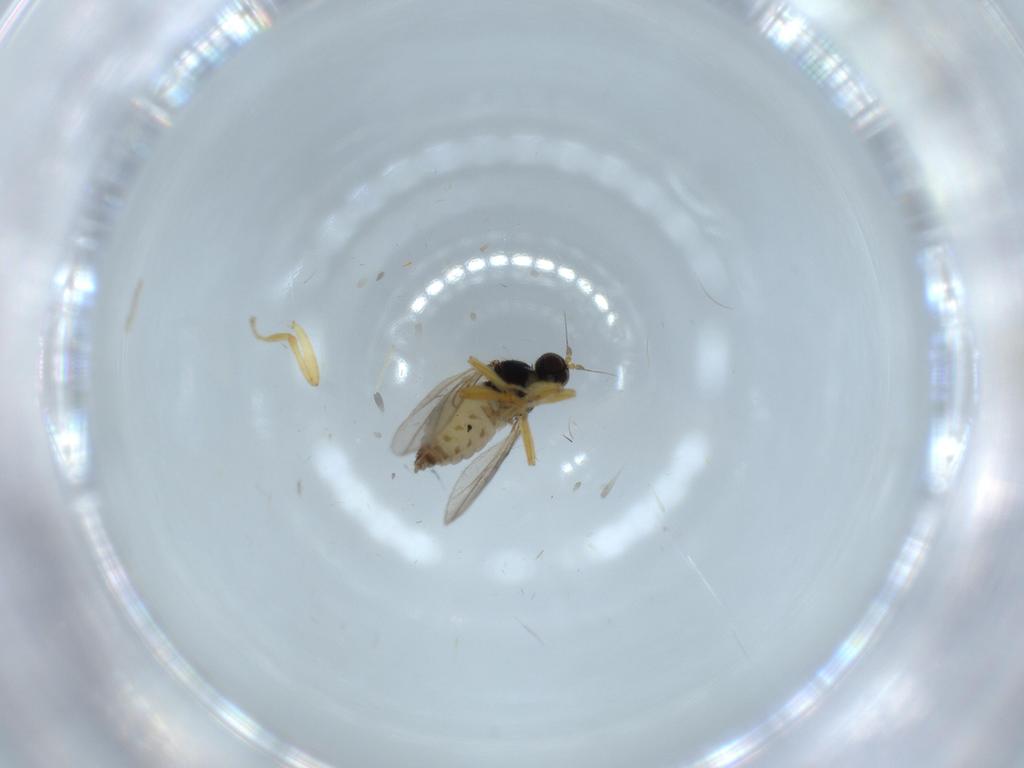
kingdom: Animalia
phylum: Arthropoda
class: Insecta
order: Diptera
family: Hybotidae
